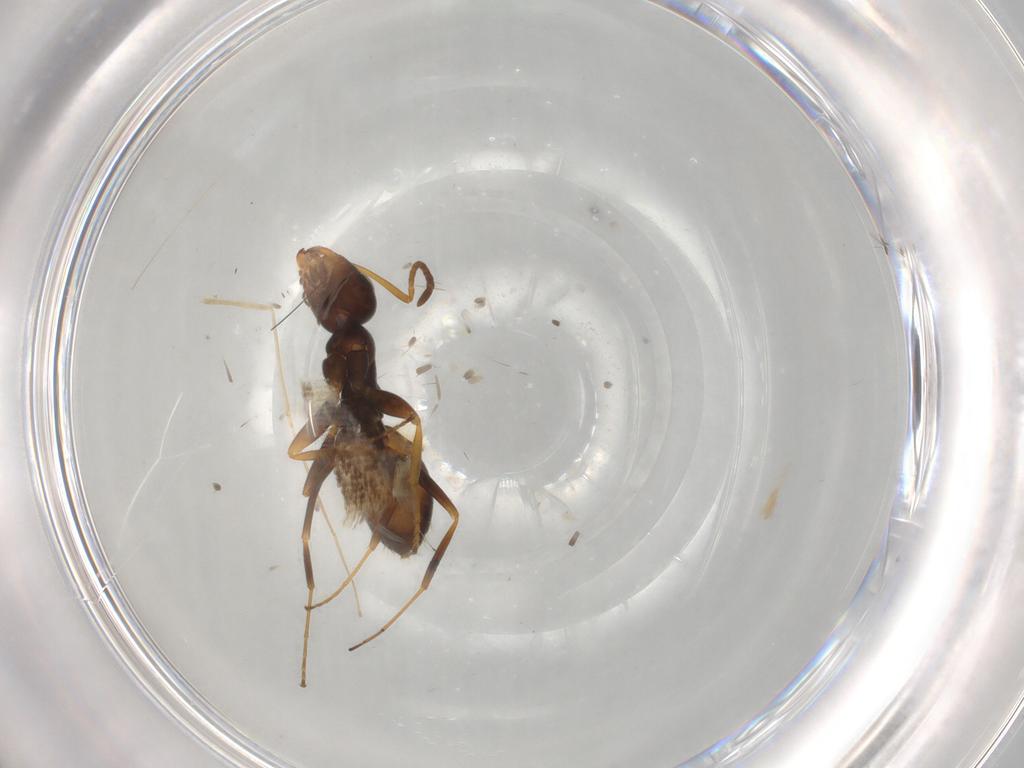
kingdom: Animalia
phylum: Arthropoda
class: Insecta
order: Hymenoptera
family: Formicidae
